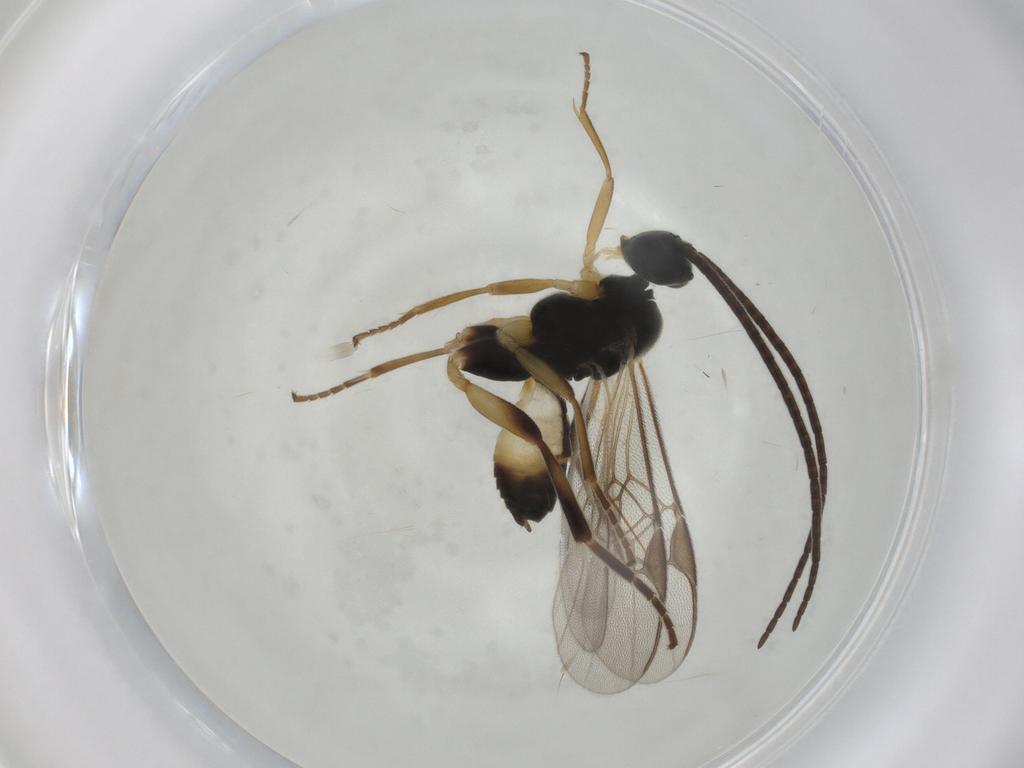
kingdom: Animalia
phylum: Arthropoda
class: Insecta
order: Hymenoptera
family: Braconidae
